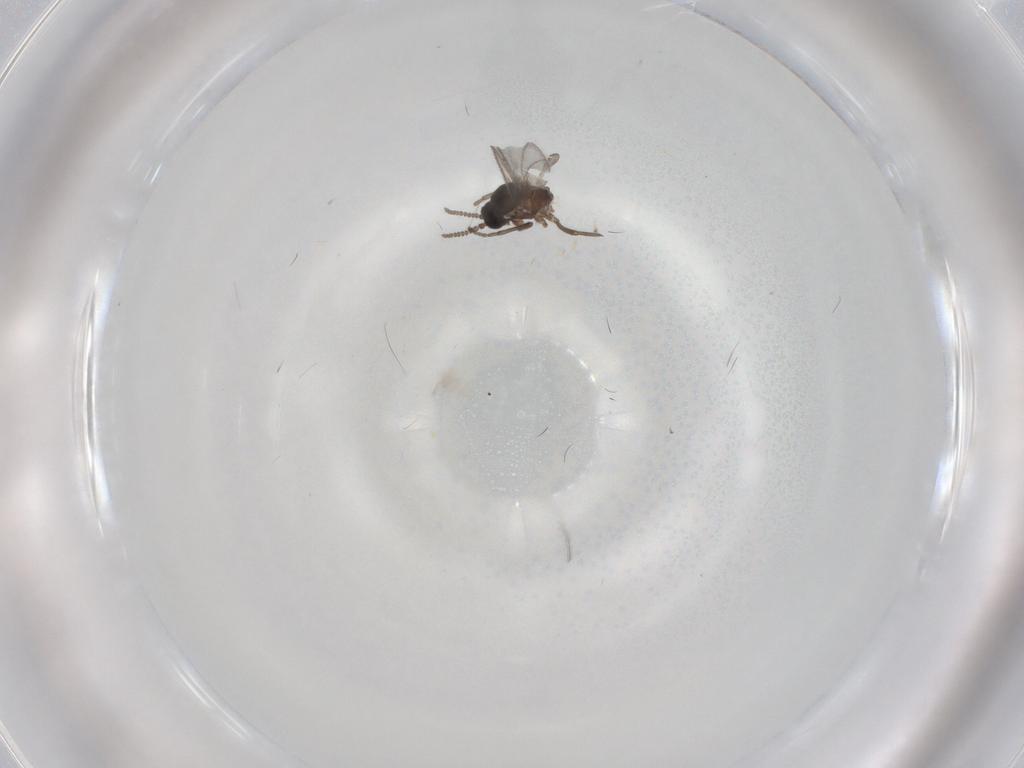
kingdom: Animalia
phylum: Arthropoda
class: Insecta
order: Diptera
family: Sciaridae
